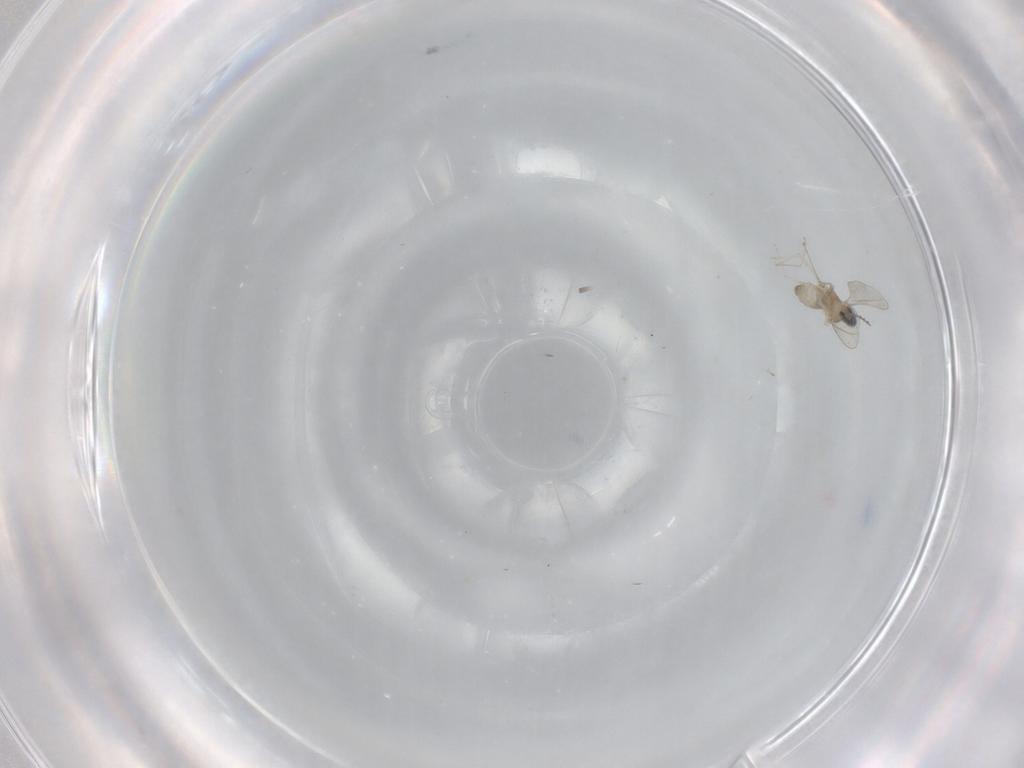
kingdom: Animalia
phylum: Arthropoda
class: Insecta
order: Diptera
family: Cecidomyiidae
